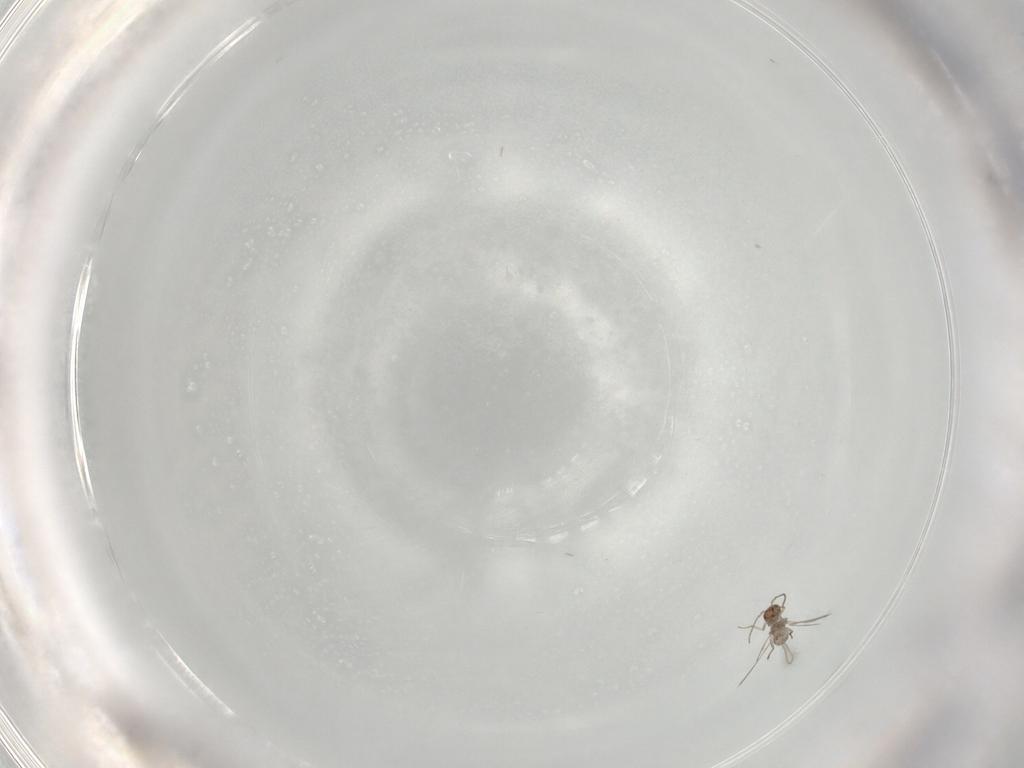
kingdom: Animalia
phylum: Arthropoda
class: Insecta
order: Hymenoptera
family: Mymaridae
